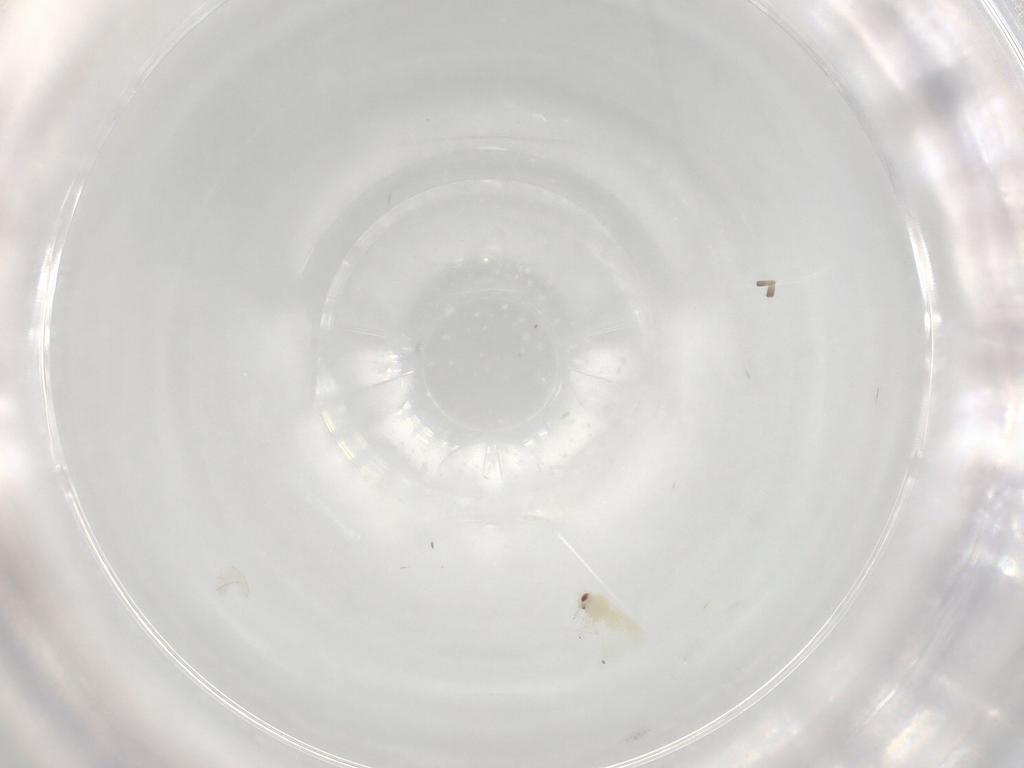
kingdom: Animalia
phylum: Arthropoda
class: Insecta
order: Hemiptera
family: Aleyrodidae
